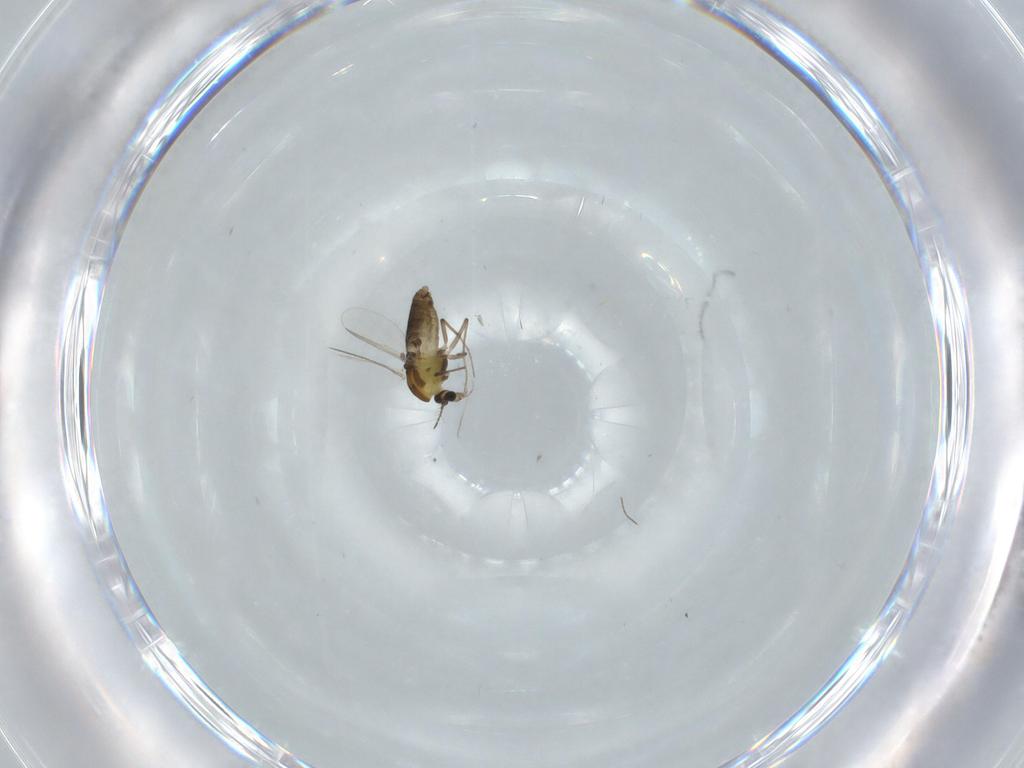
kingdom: Animalia
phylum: Arthropoda
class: Insecta
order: Diptera
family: Chironomidae
